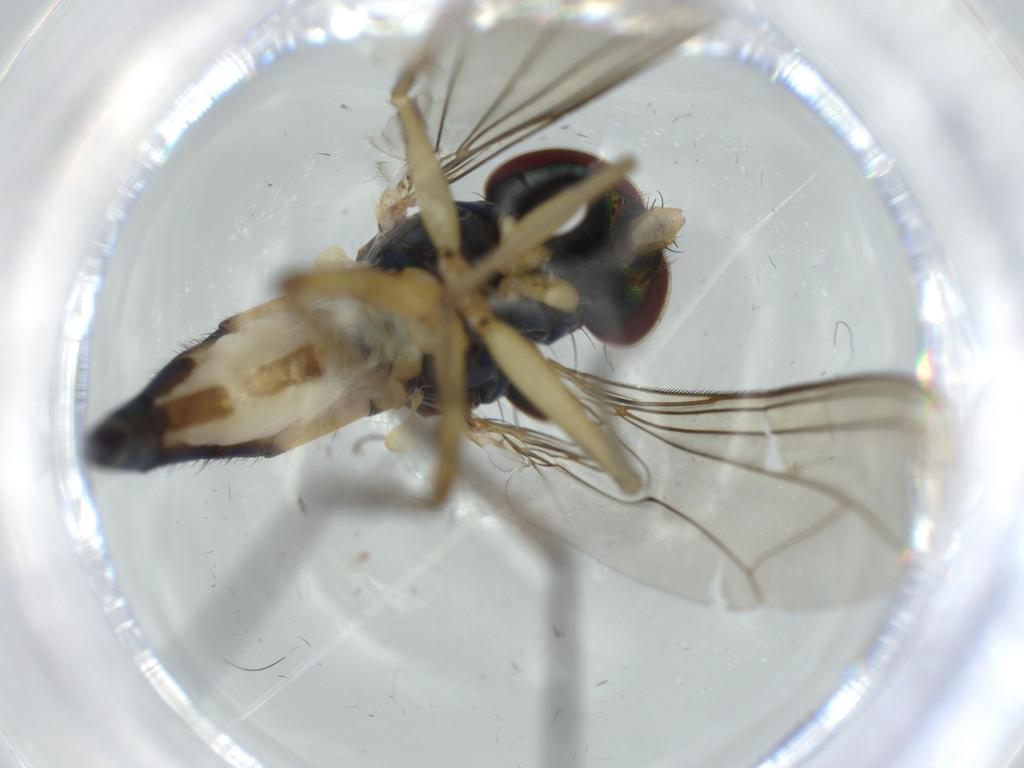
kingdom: Animalia
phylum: Arthropoda
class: Insecta
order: Diptera
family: Dolichopodidae
